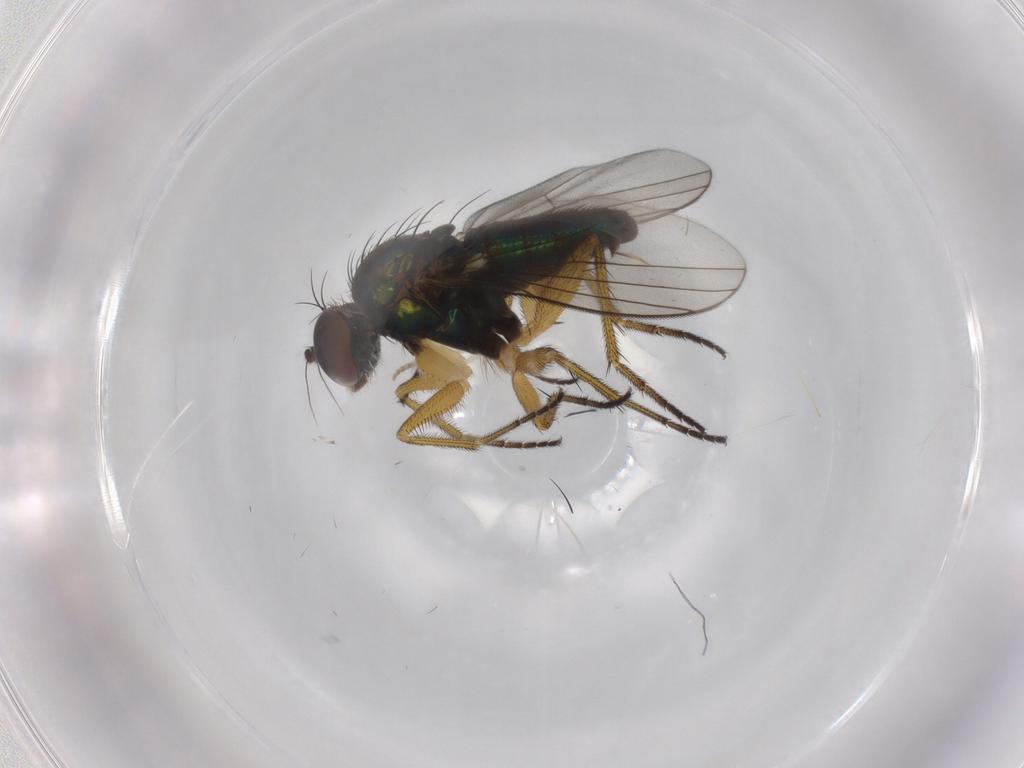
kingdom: Animalia
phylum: Arthropoda
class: Insecta
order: Diptera
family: Dolichopodidae
